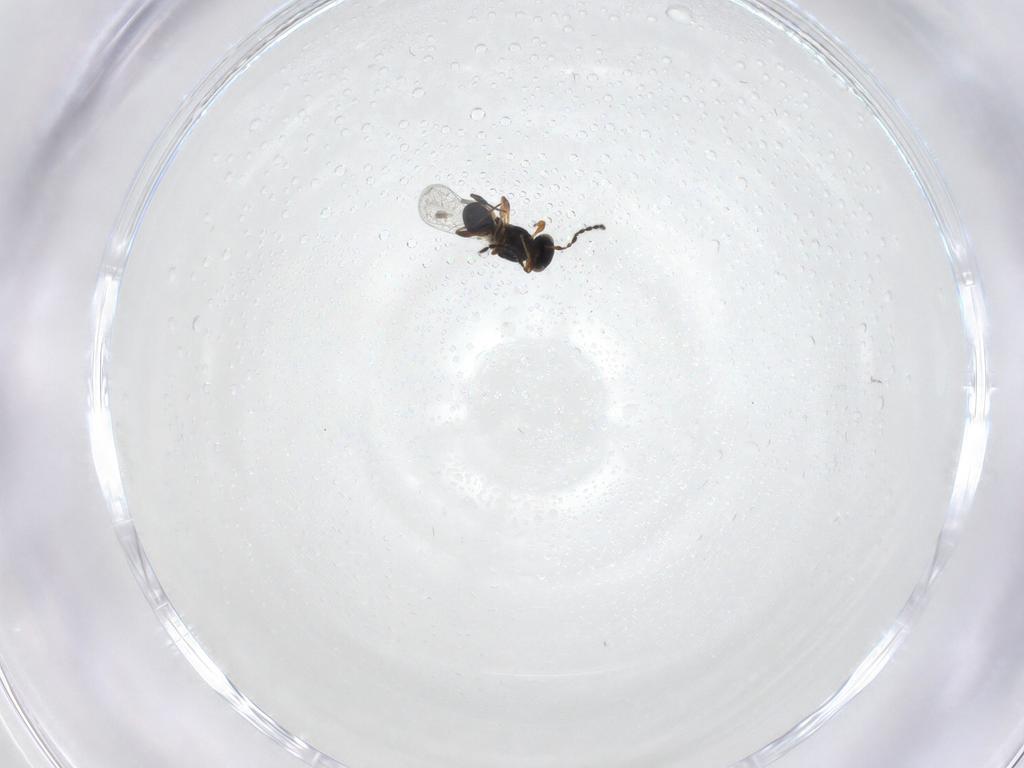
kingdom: Animalia
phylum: Arthropoda
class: Insecta
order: Hymenoptera
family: Platygastridae
